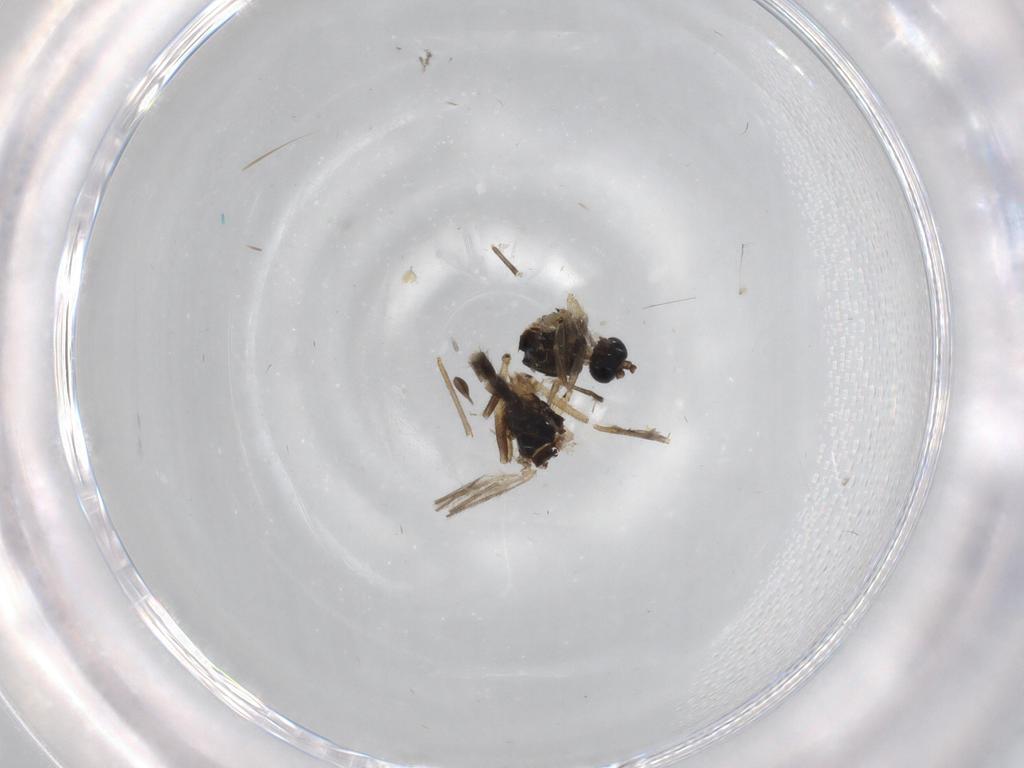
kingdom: Animalia
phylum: Arthropoda
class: Insecta
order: Diptera
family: Sciaridae
